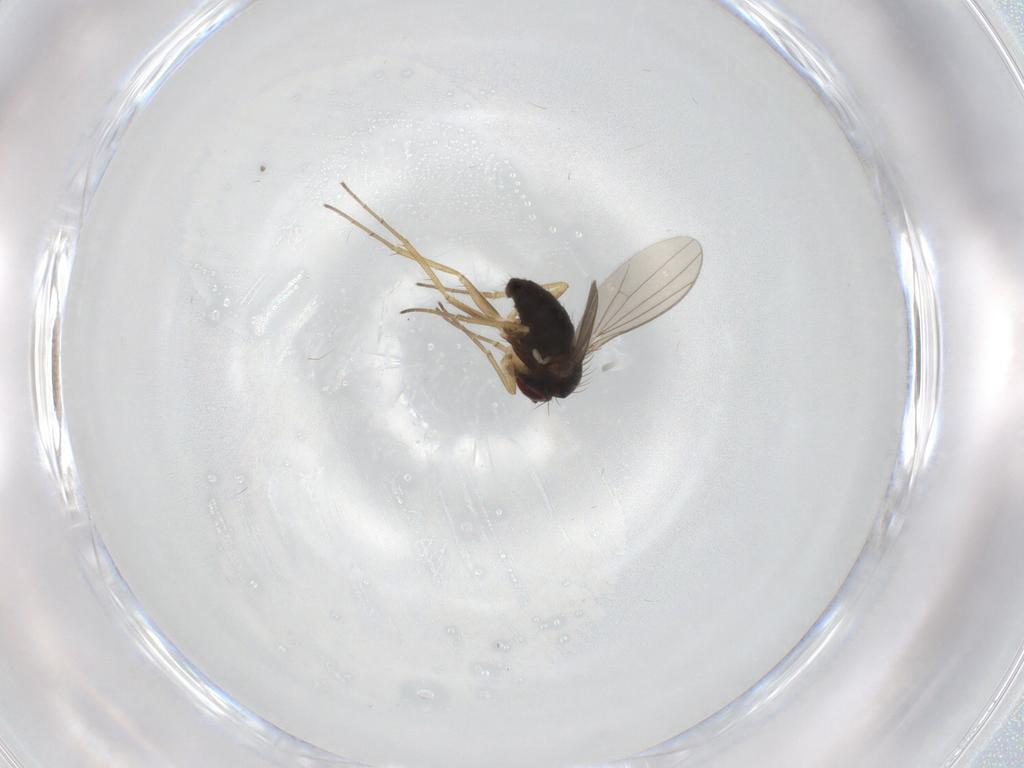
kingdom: Animalia
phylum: Arthropoda
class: Insecta
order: Diptera
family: Dolichopodidae
